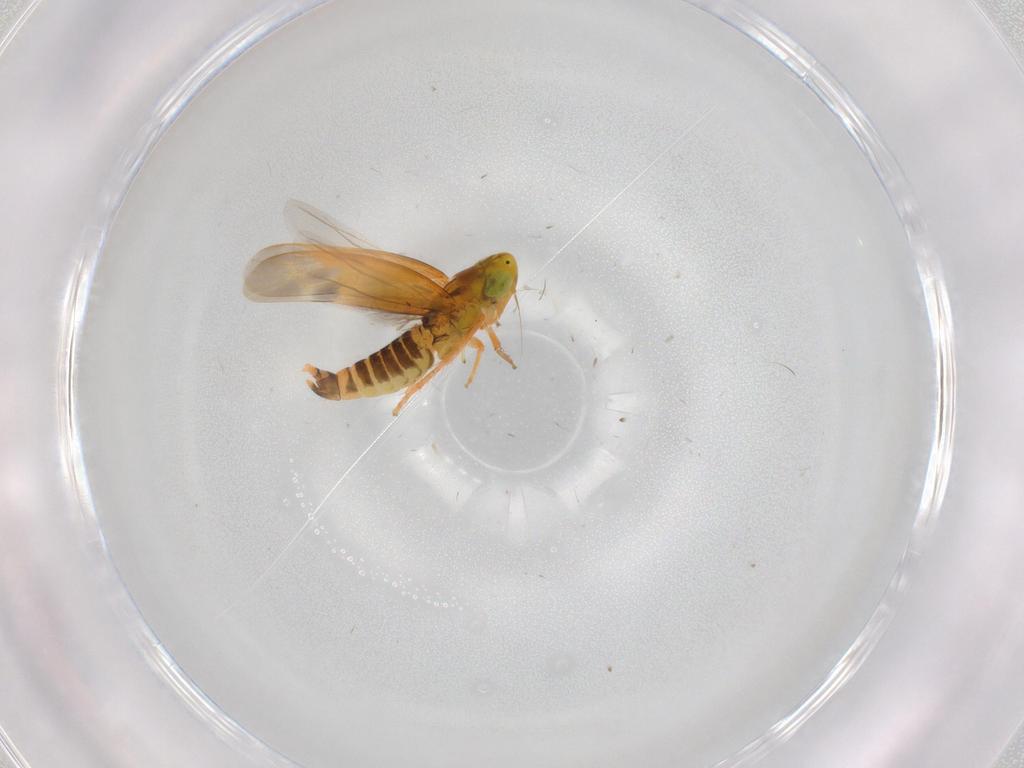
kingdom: Animalia
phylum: Arthropoda
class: Insecta
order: Hemiptera
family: Cicadellidae
